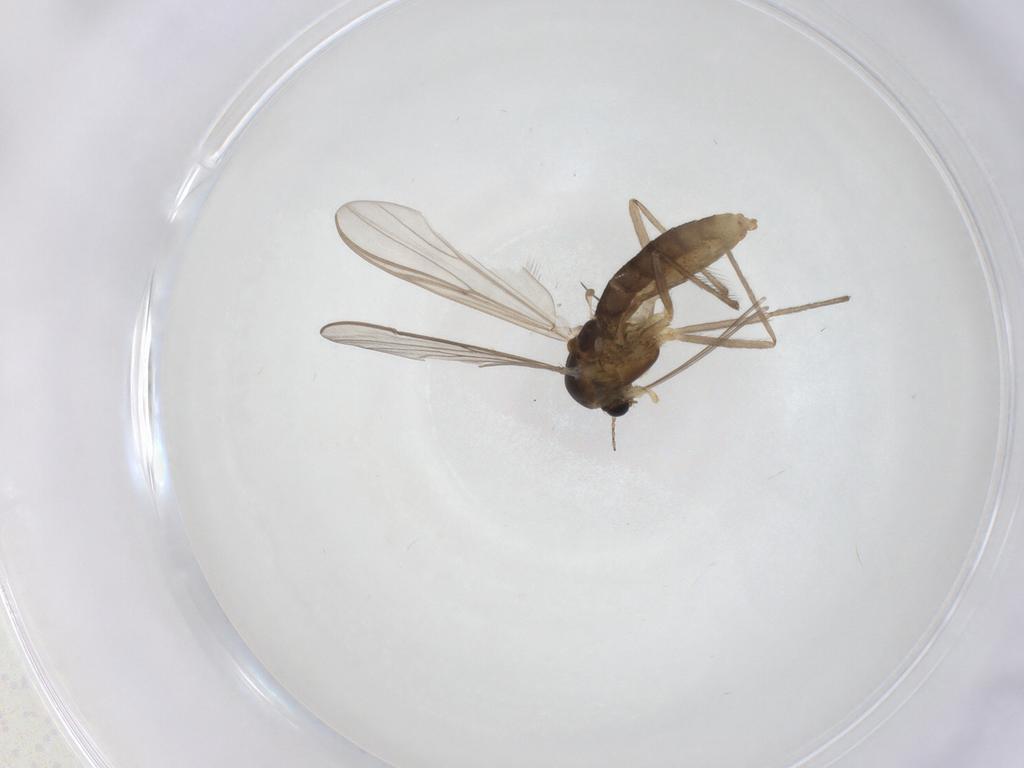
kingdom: Animalia
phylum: Arthropoda
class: Insecta
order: Diptera
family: Chironomidae
